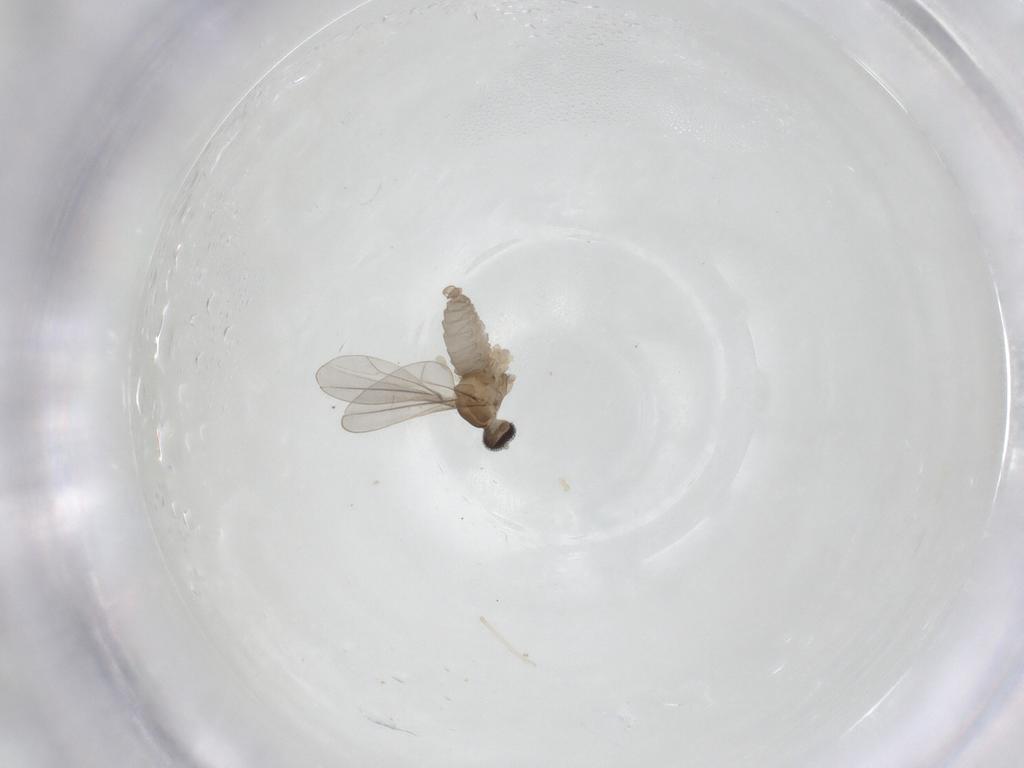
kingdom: Animalia
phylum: Arthropoda
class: Insecta
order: Diptera
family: Cecidomyiidae
